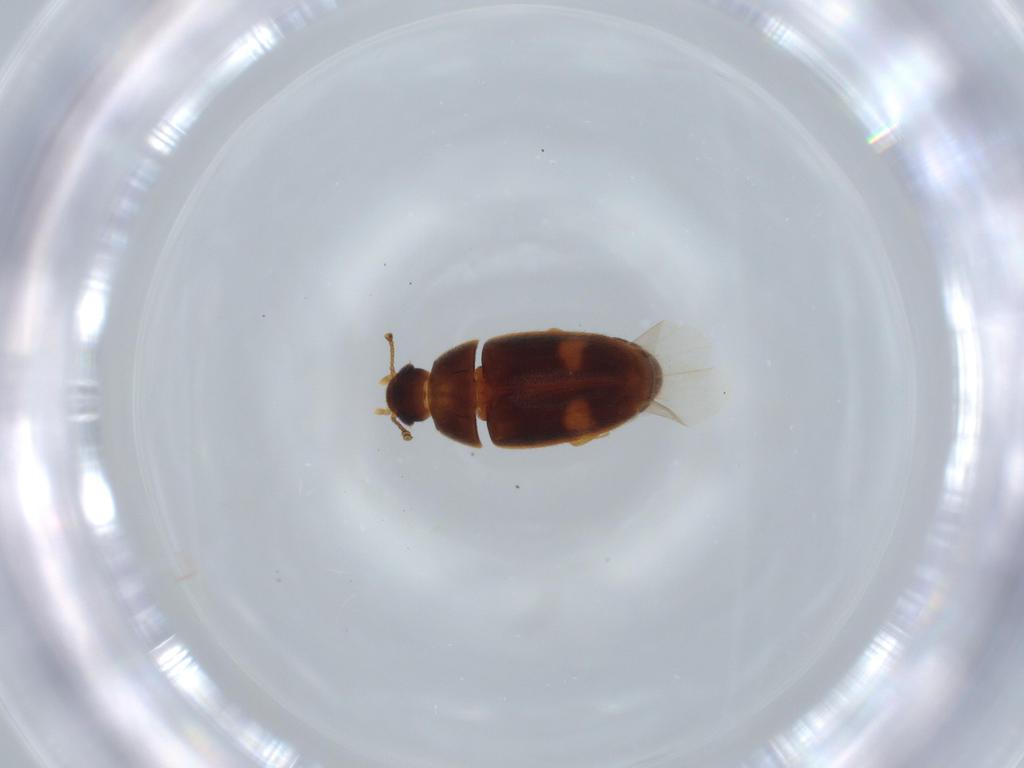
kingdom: Animalia
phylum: Arthropoda
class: Insecta
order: Coleoptera
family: Mycetophagidae
